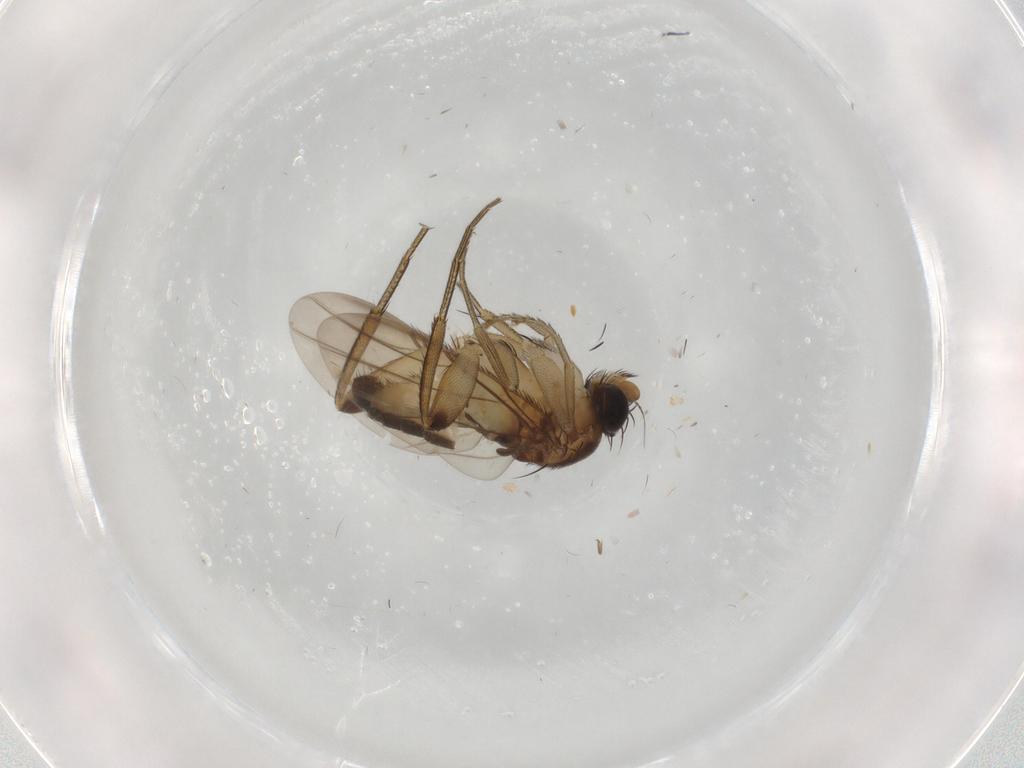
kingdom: Animalia
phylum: Arthropoda
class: Insecta
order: Diptera
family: Phoridae
